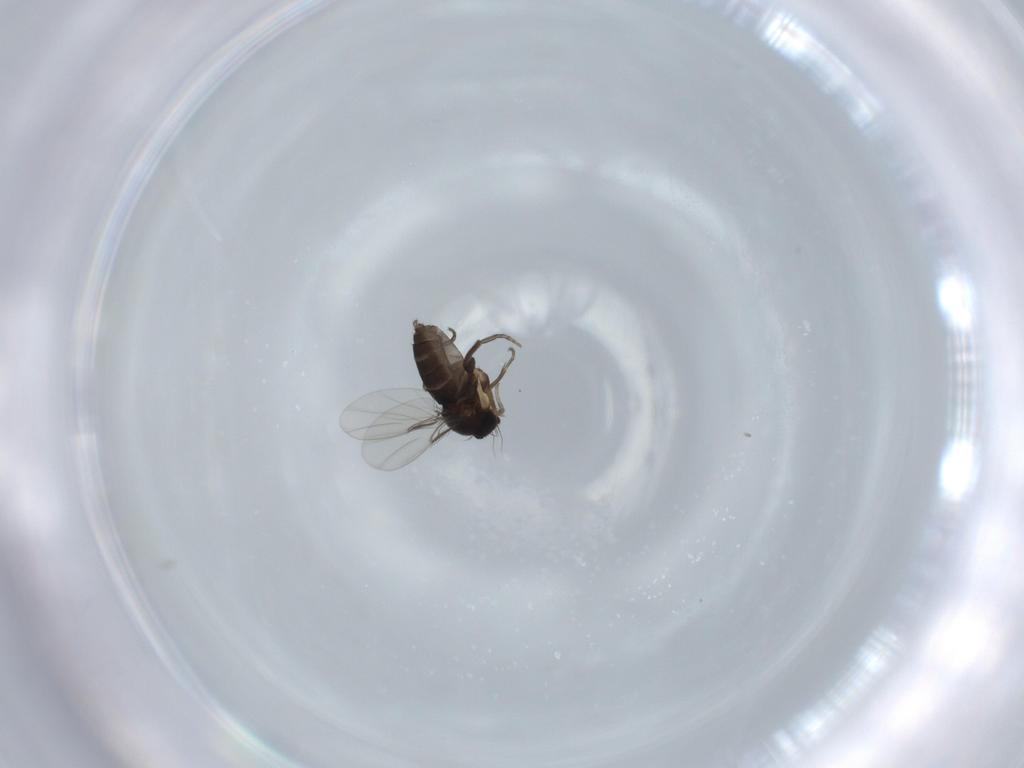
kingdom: Animalia
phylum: Arthropoda
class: Insecta
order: Diptera
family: Phoridae
